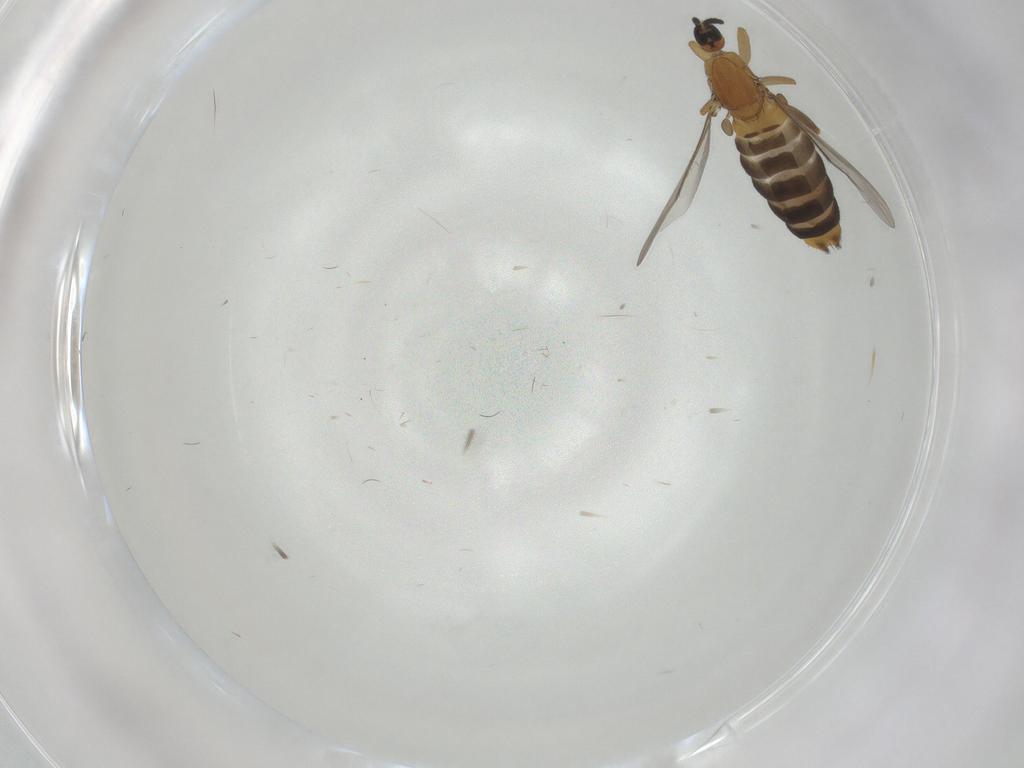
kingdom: Animalia
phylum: Arthropoda
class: Insecta
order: Diptera
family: Scatopsidae
